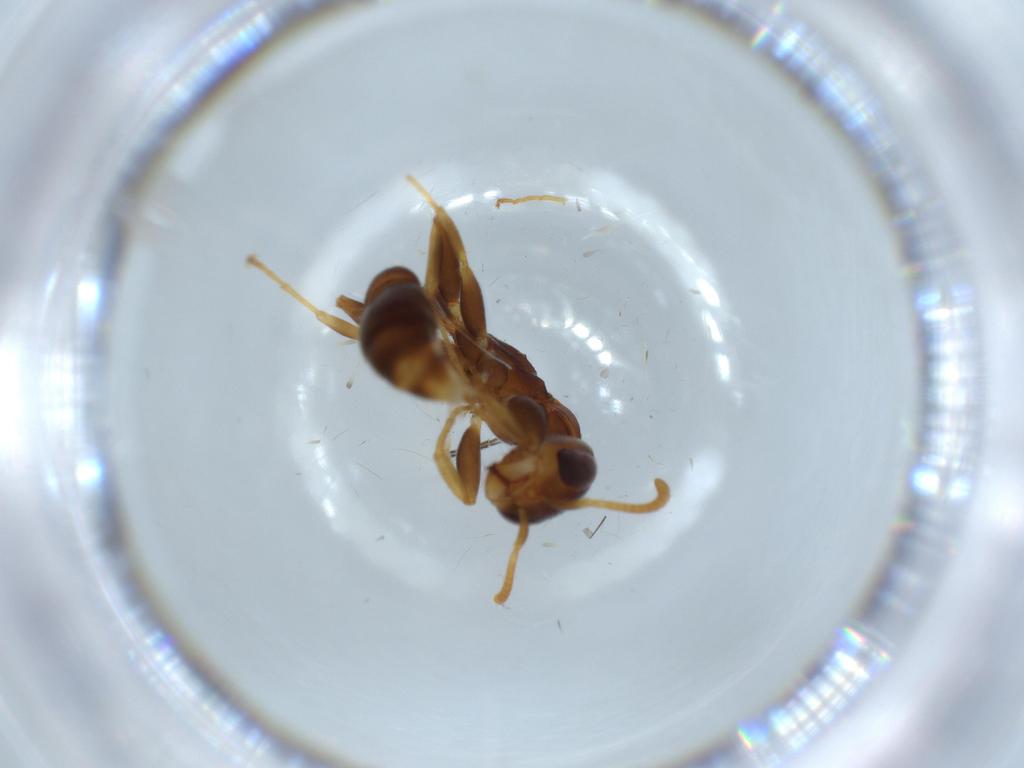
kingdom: Animalia
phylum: Arthropoda
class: Insecta
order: Hymenoptera
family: Formicidae
